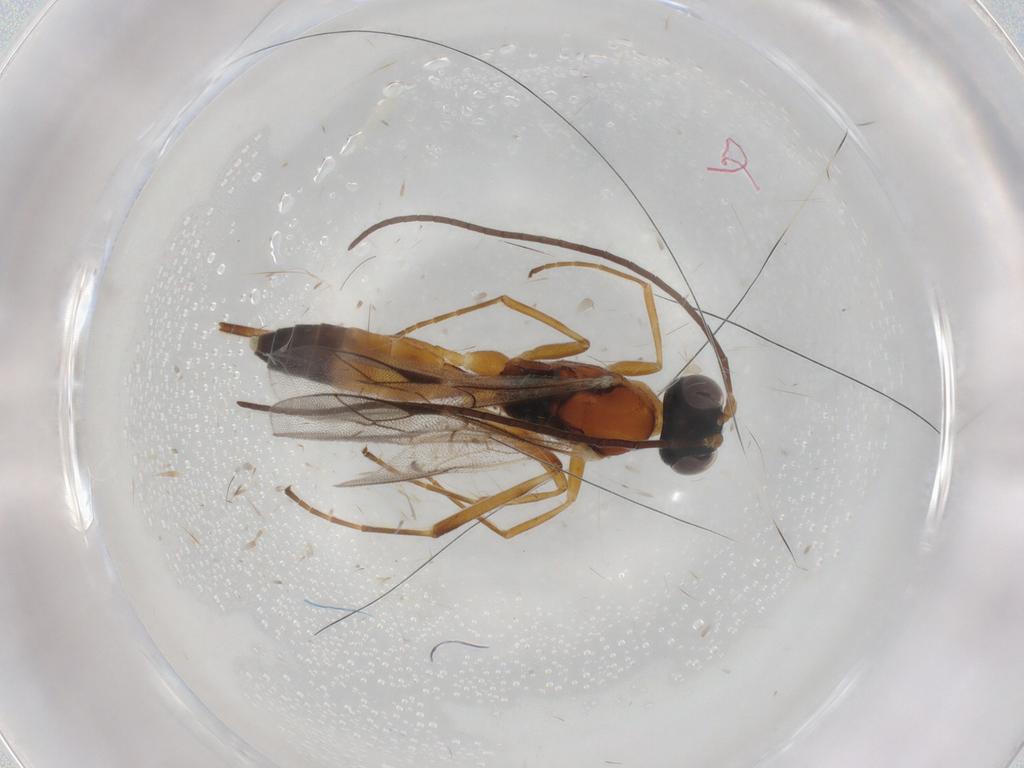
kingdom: Animalia
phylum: Arthropoda
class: Insecta
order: Hymenoptera
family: Ichneumonidae
